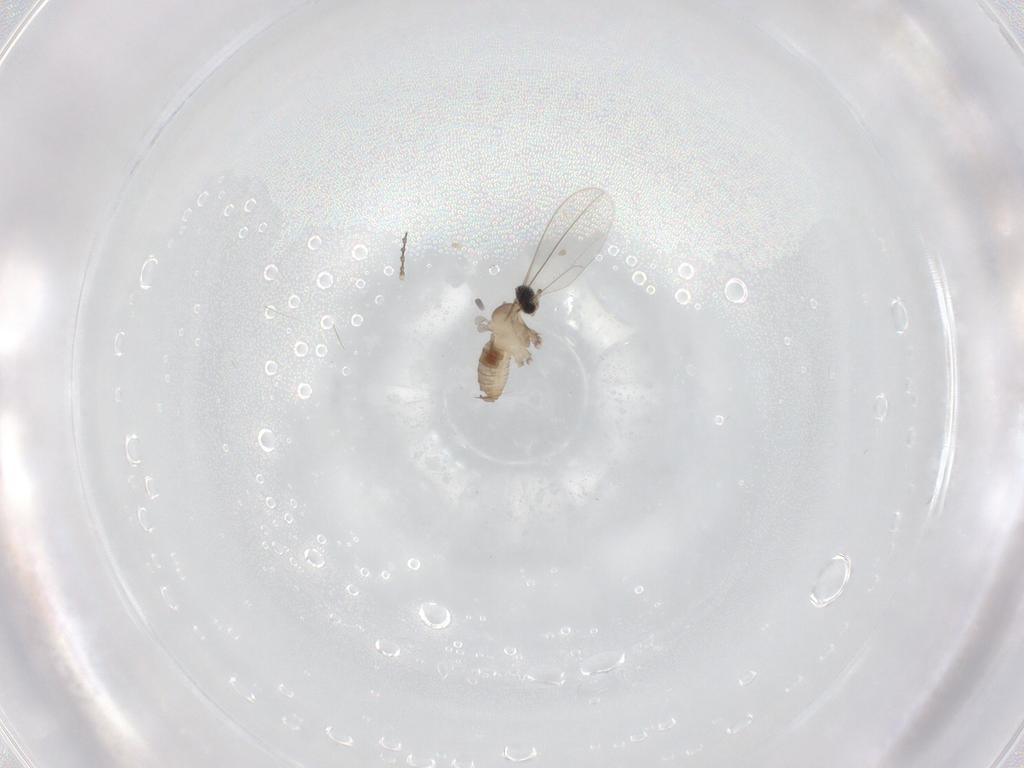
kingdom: Animalia
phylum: Arthropoda
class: Insecta
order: Diptera
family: Cecidomyiidae
